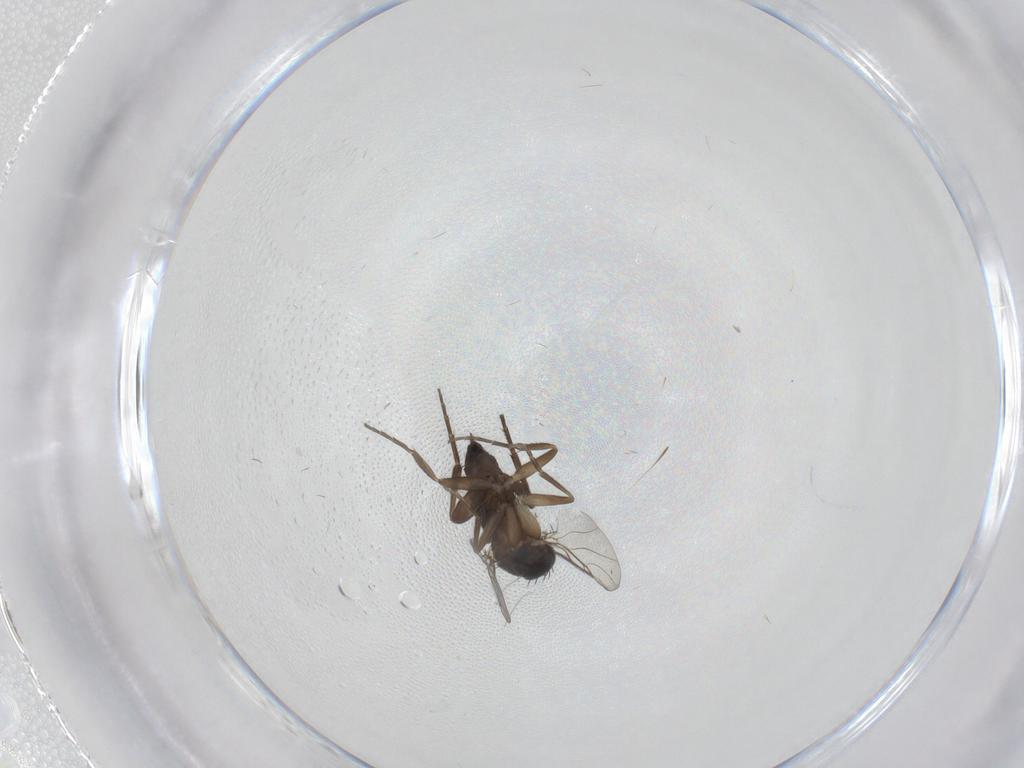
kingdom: Animalia
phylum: Arthropoda
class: Insecta
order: Diptera
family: Phoridae
